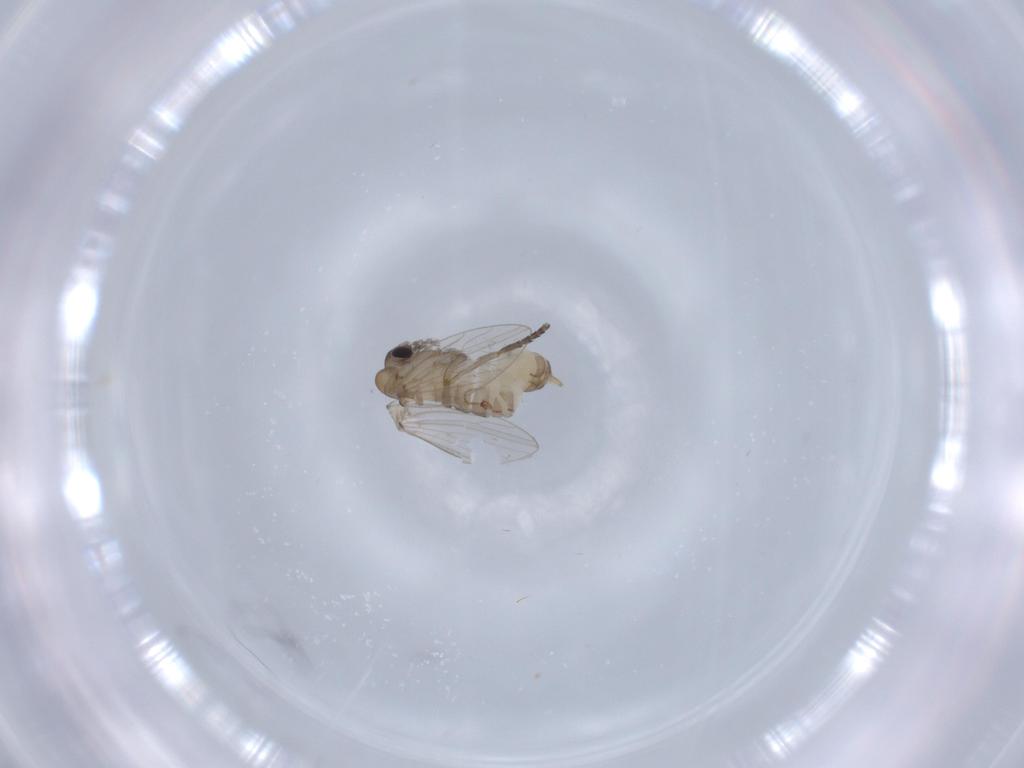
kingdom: Animalia
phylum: Arthropoda
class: Insecta
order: Diptera
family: Psychodidae
